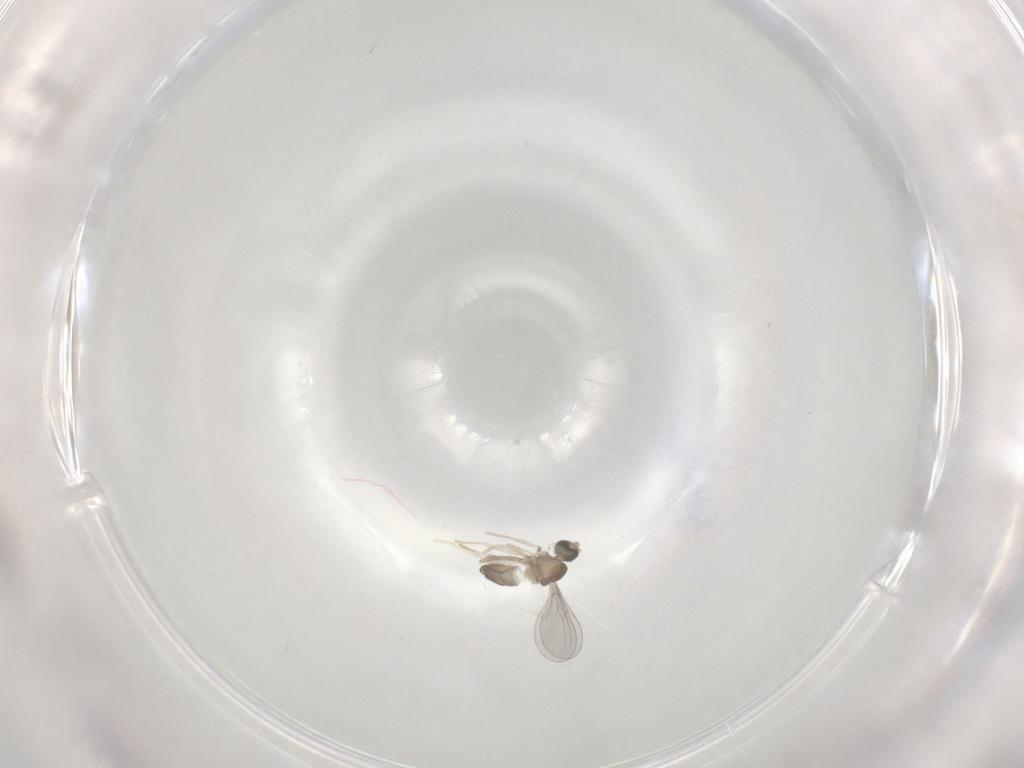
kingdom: Animalia
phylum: Arthropoda
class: Insecta
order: Diptera
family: Cecidomyiidae
